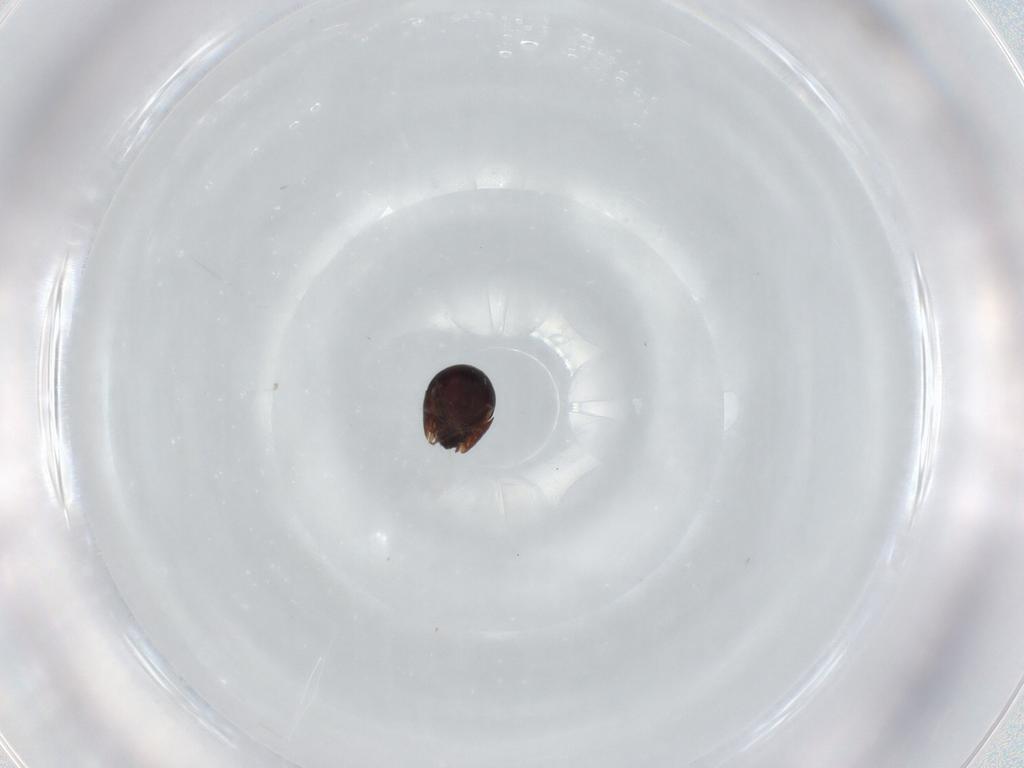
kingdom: Animalia
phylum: Arthropoda
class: Arachnida
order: Sarcoptiformes
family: Ceratozetidae
